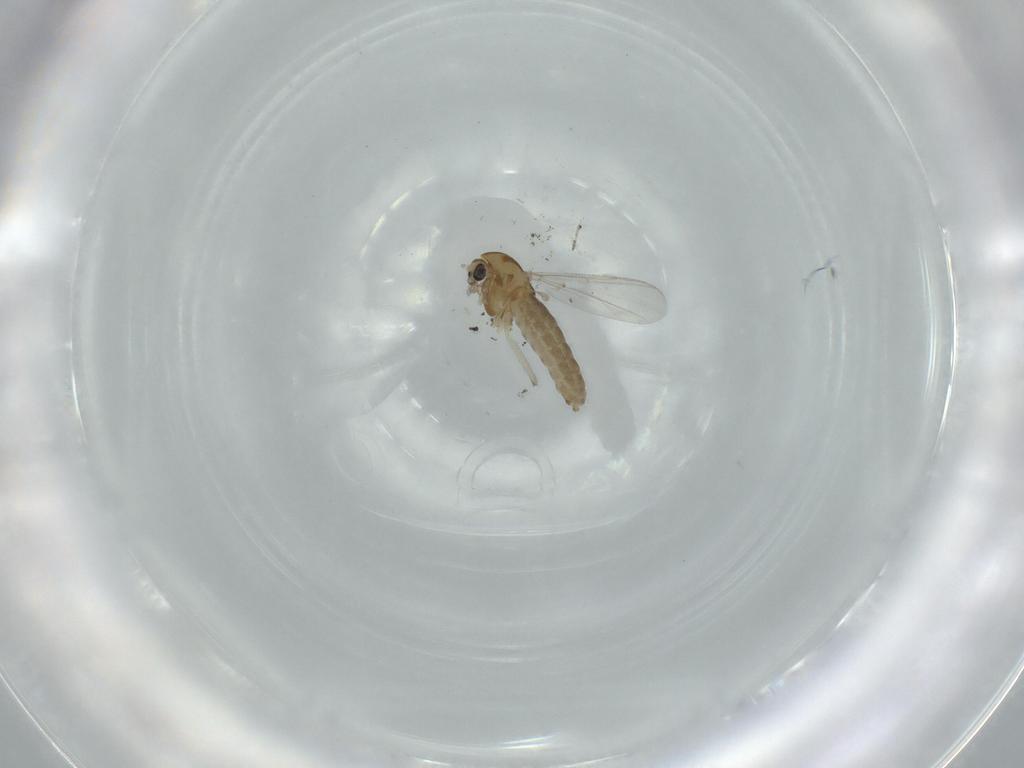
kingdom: Animalia
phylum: Arthropoda
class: Insecta
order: Diptera
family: Chironomidae
